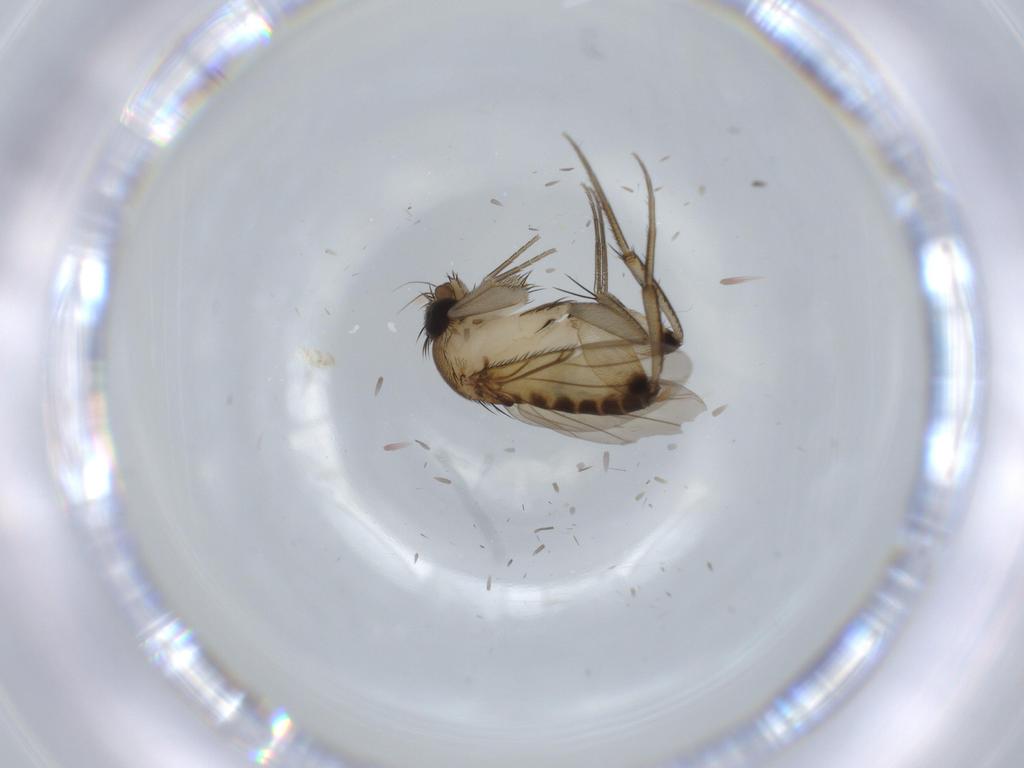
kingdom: Animalia
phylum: Arthropoda
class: Insecta
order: Diptera
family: Phoridae
